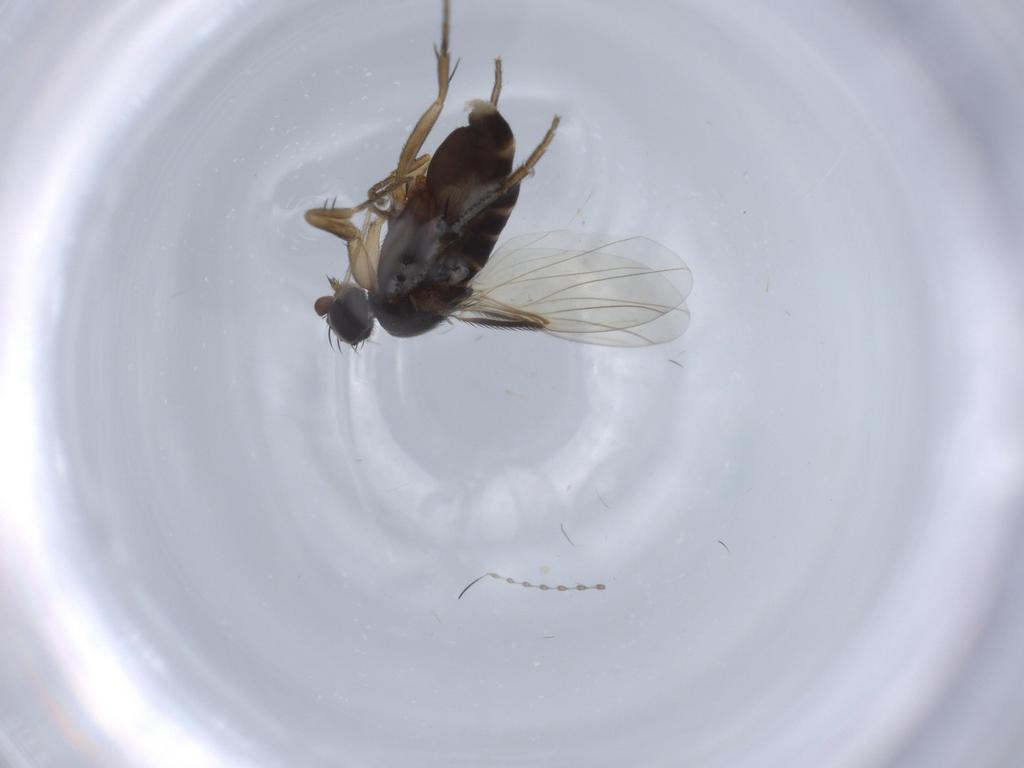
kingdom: Animalia
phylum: Arthropoda
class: Insecta
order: Diptera
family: Phoridae
